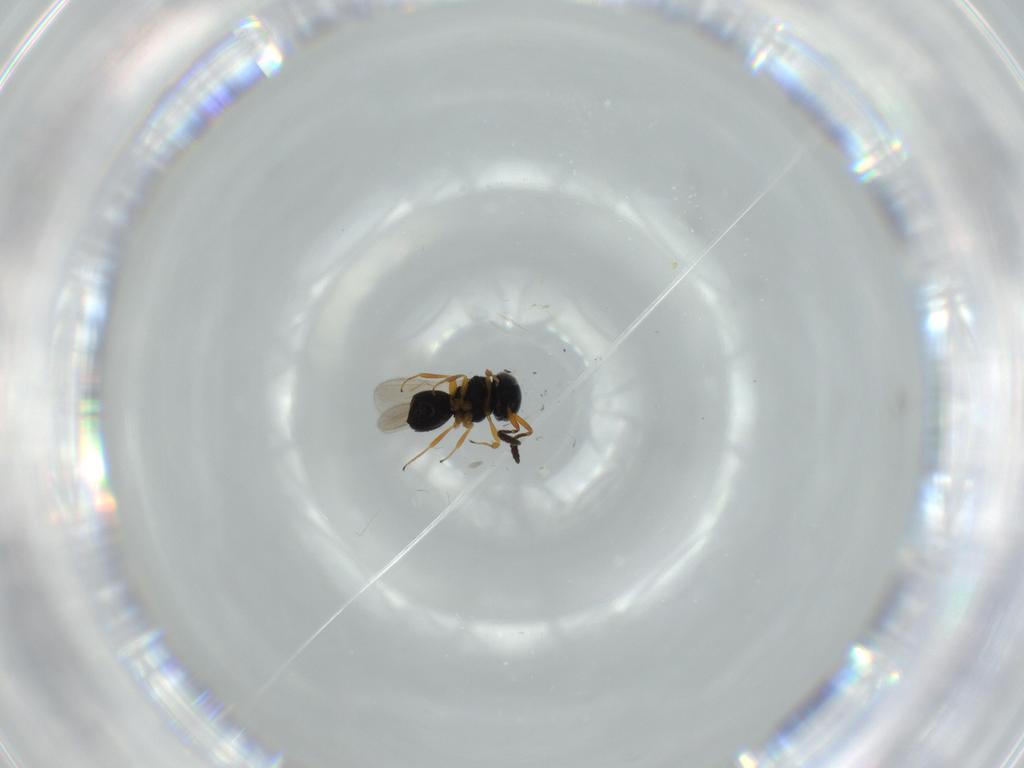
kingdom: Animalia
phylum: Arthropoda
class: Insecta
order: Hymenoptera
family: Scelionidae
